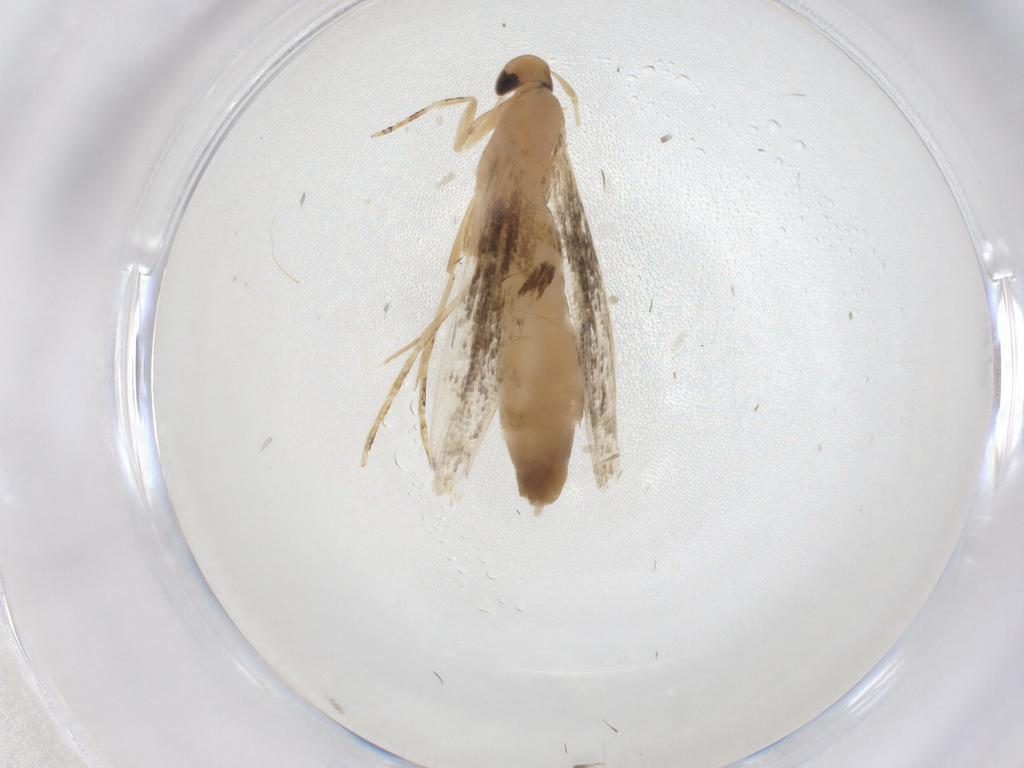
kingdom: Animalia
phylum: Arthropoda
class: Insecta
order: Lepidoptera
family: Cosmopterigidae
